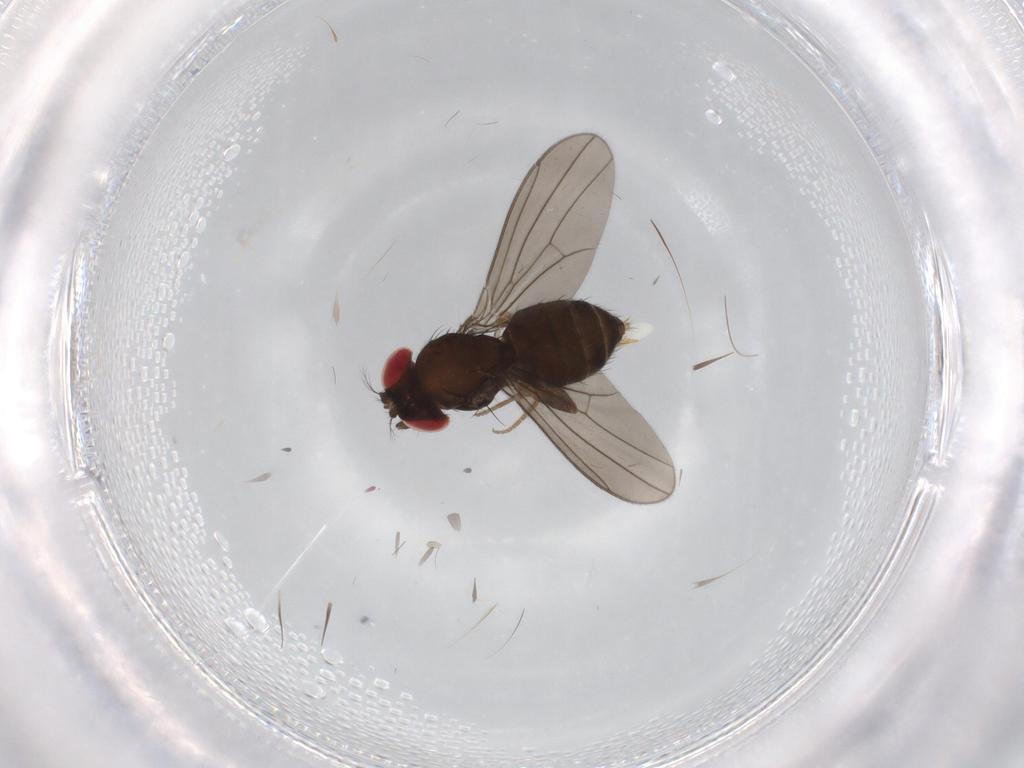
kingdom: Animalia
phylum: Arthropoda
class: Insecta
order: Diptera
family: Drosophilidae
